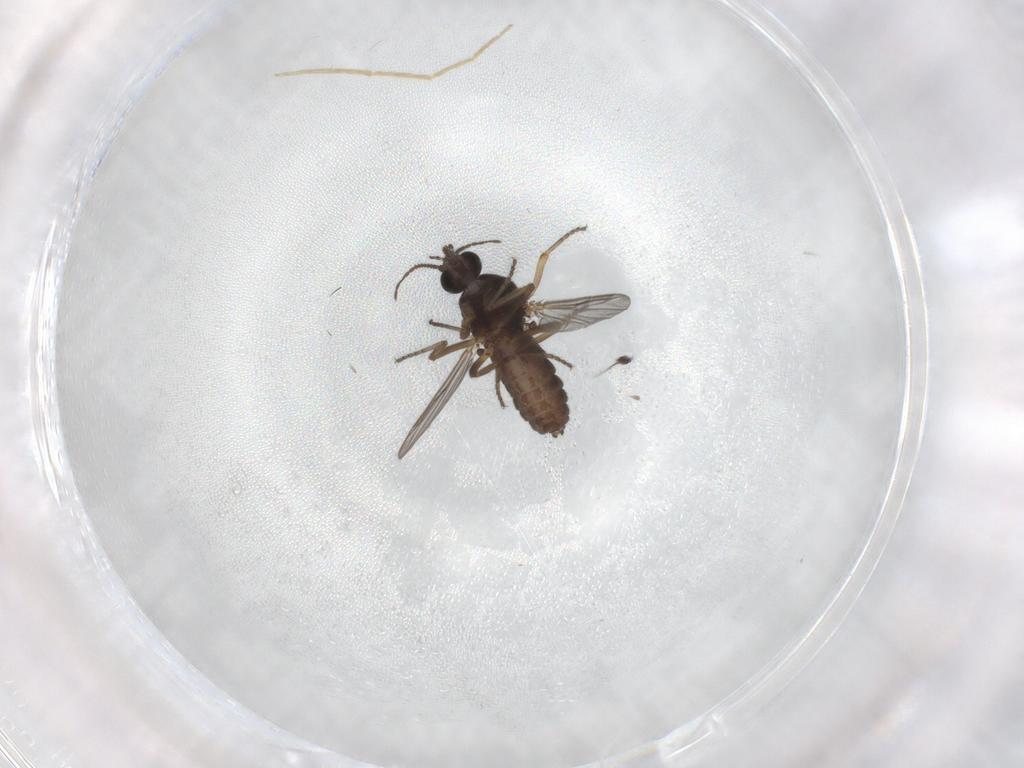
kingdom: Animalia
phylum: Arthropoda
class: Insecta
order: Diptera
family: Ceratopogonidae
